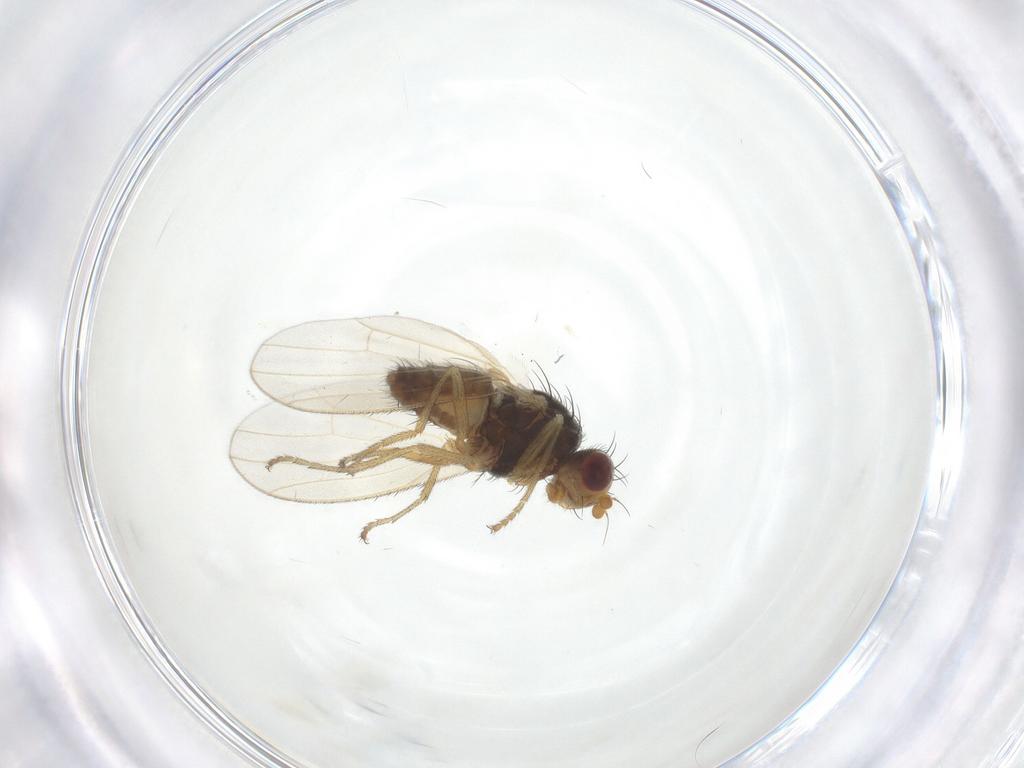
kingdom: Animalia
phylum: Arthropoda
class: Insecta
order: Diptera
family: Heleomyzidae
